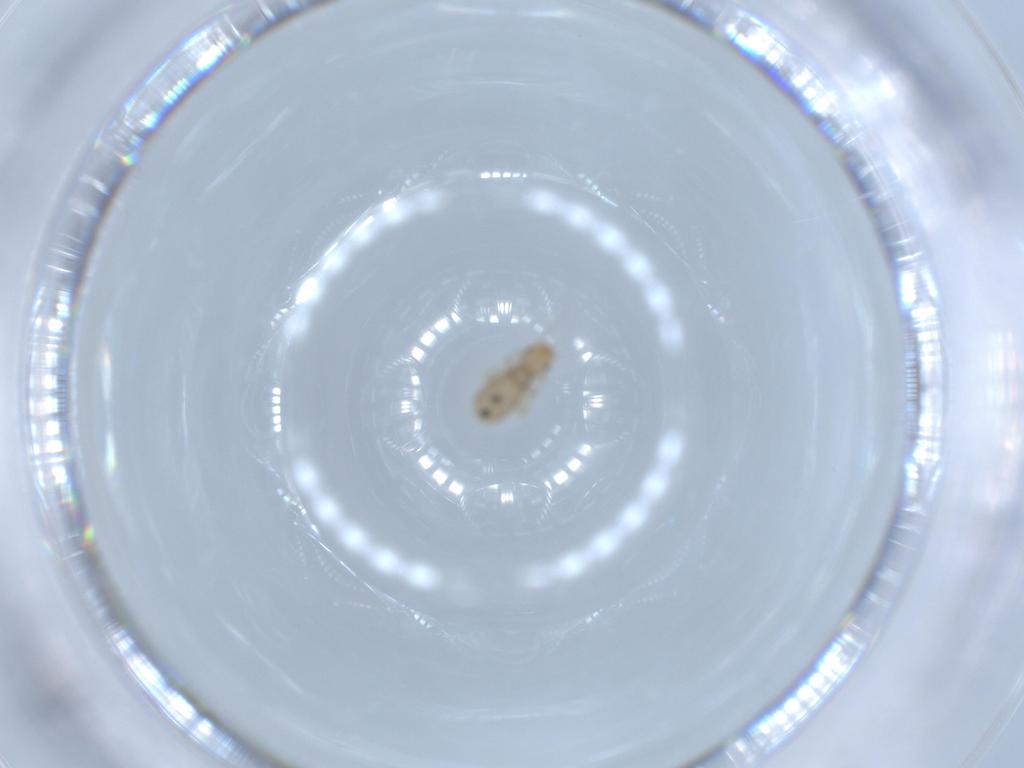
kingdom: Animalia
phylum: Arthropoda
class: Insecta
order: Psocodea
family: Liposcelididae
